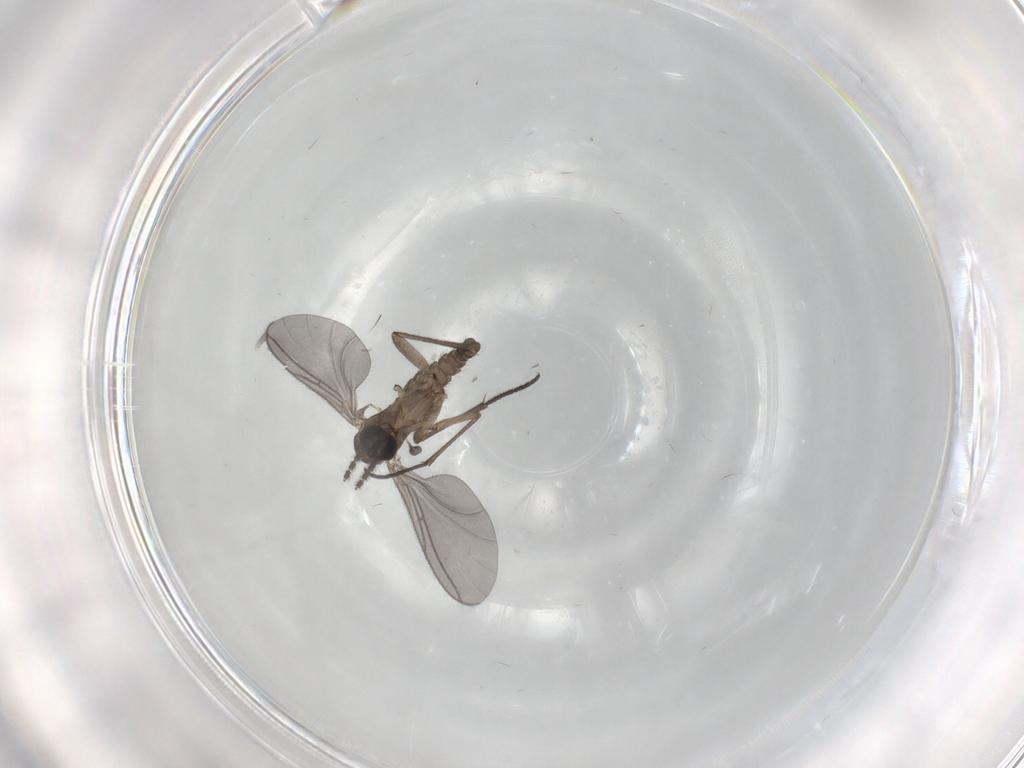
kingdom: Animalia
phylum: Arthropoda
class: Insecta
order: Diptera
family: Sciaridae
